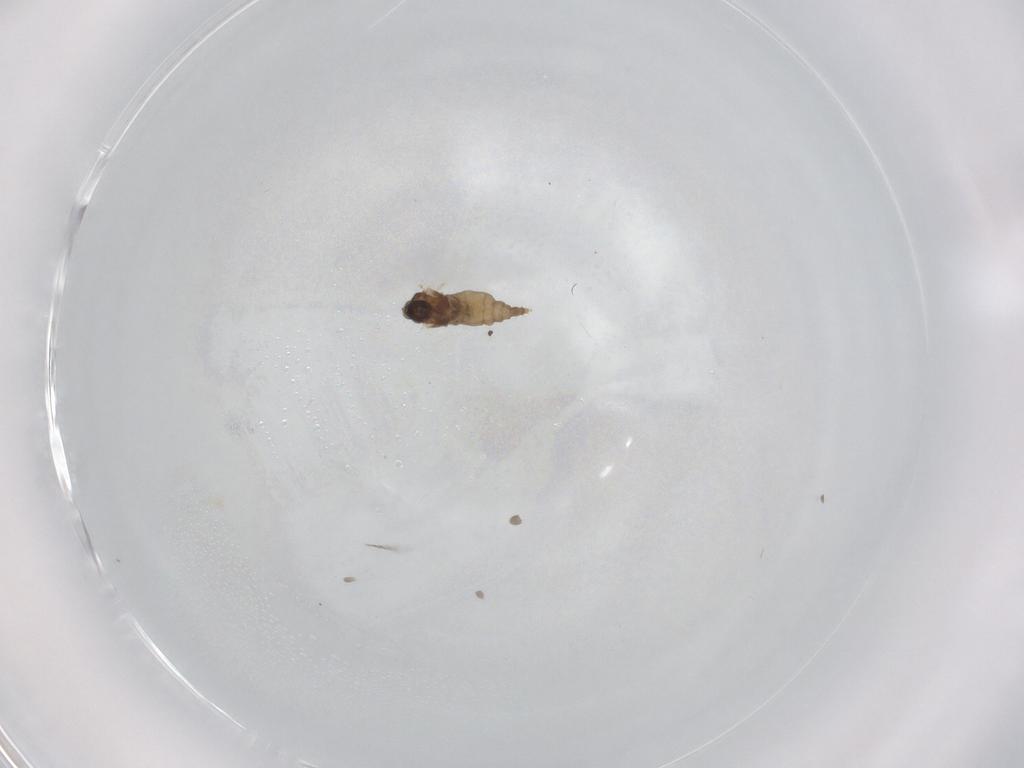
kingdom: Animalia
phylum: Arthropoda
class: Insecta
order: Diptera
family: Cecidomyiidae
